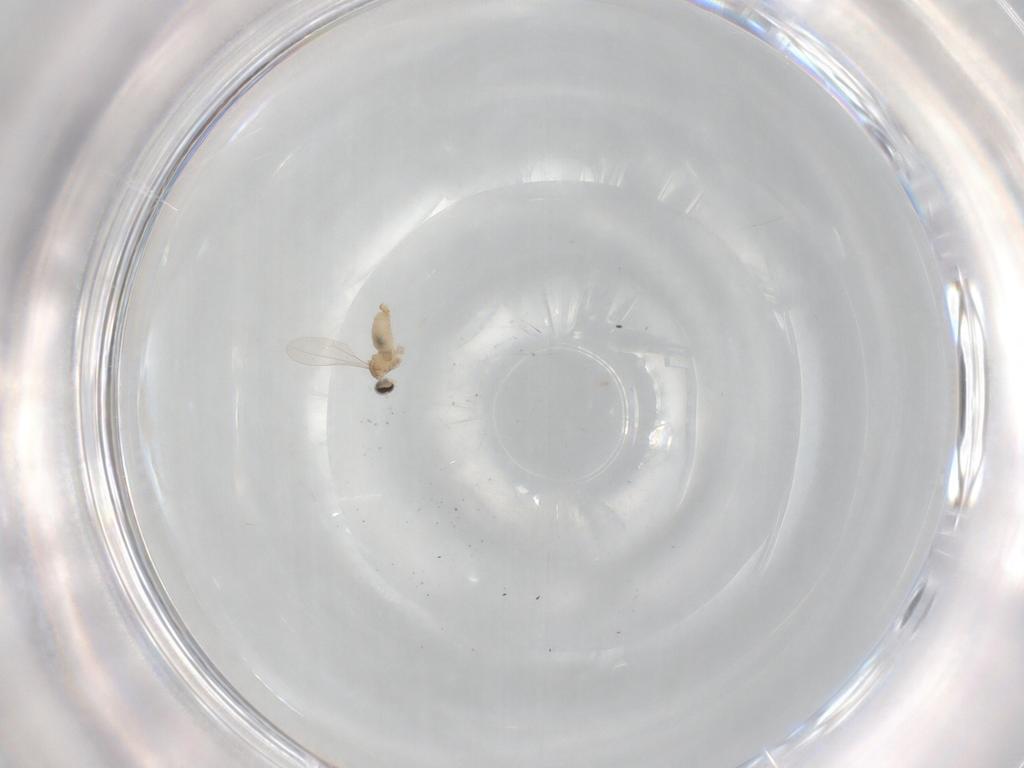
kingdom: Animalia
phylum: Arthropoda
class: Insecta
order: Diptera
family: Cecidomyiidae
